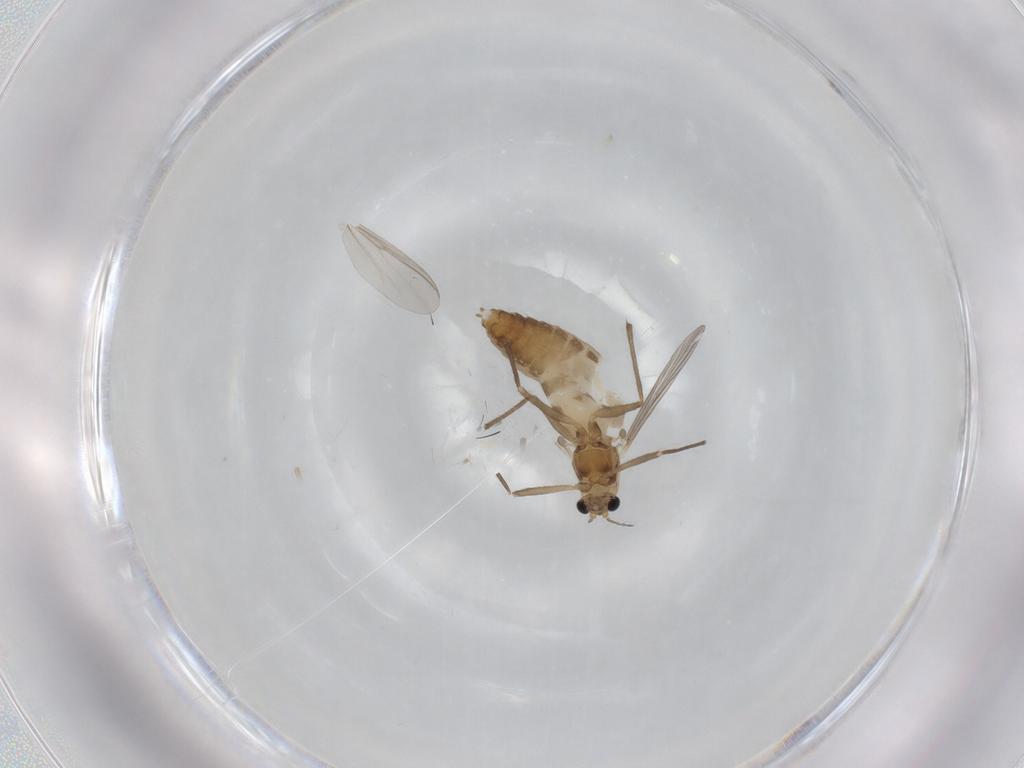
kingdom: Animalia
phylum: Arthropoda
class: Insecta
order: Diptera
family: Chironomidae
